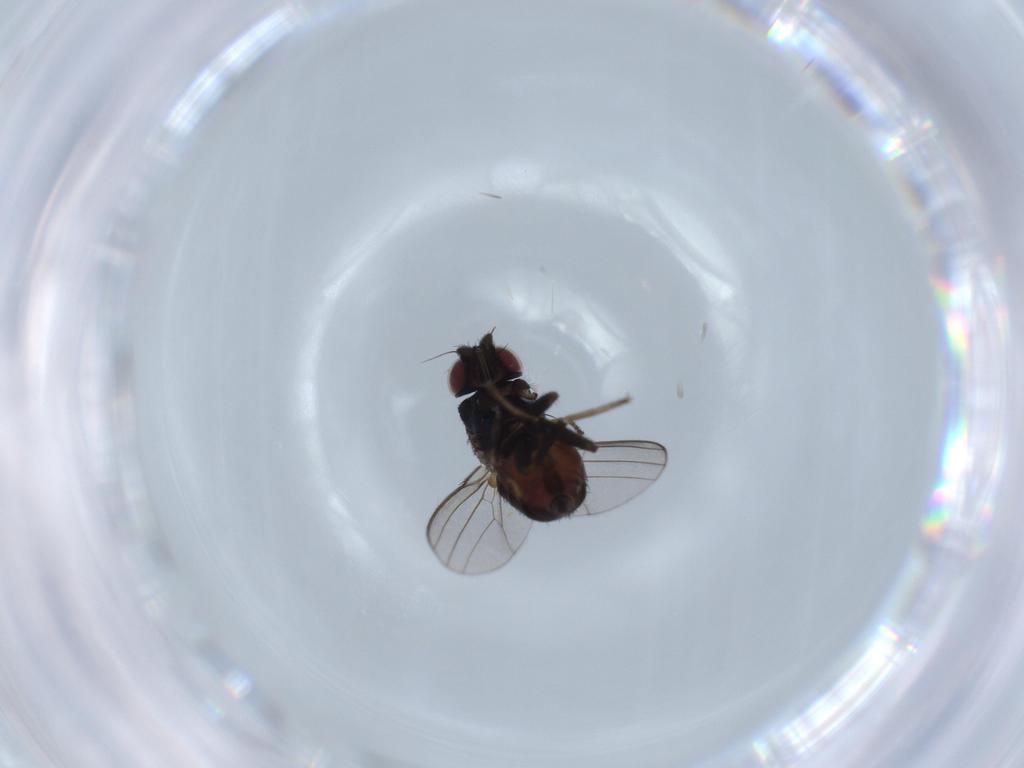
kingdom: Animalia
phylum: Arthropoda
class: Insecta
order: Diptera
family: Milichiidae
